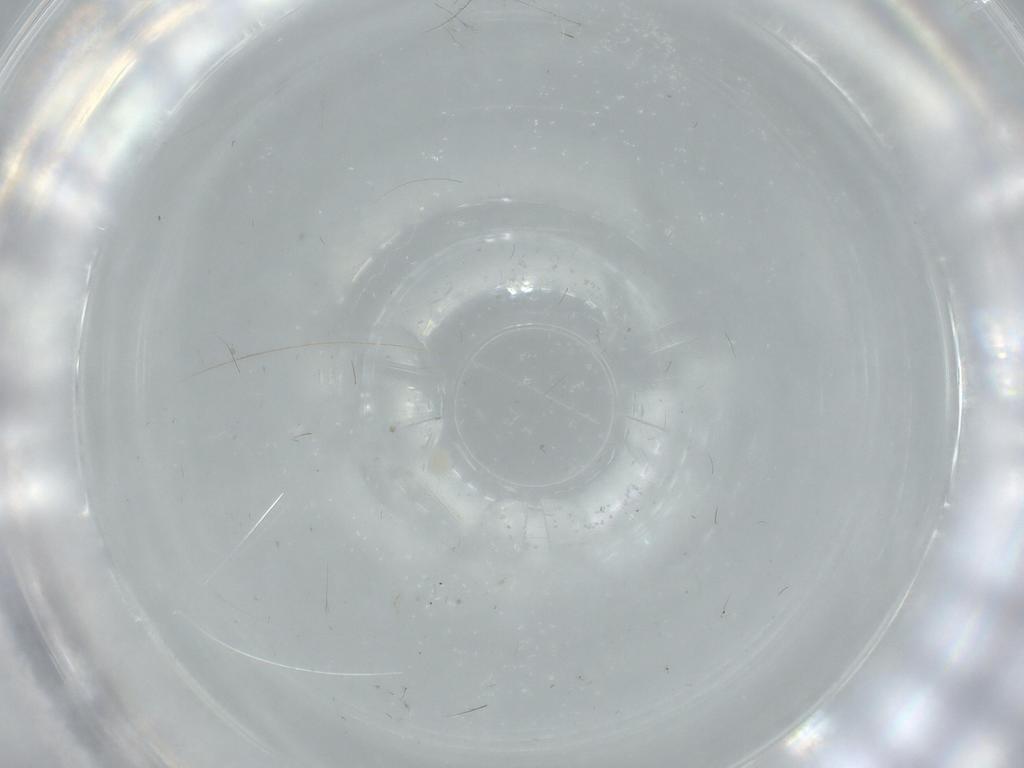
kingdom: Animalia
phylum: Arthropoda
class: Insecta
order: Lepidoptera
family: Apatelodidae
